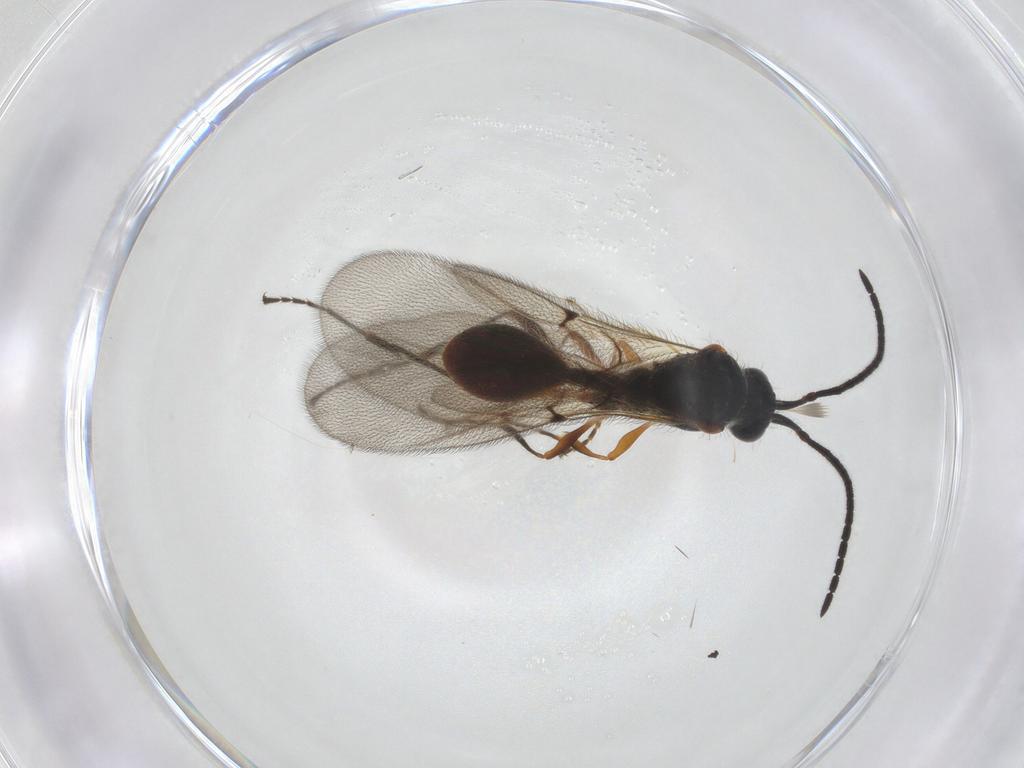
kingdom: Animalia
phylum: Arthropoda
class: Insecta
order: Hymenoptera
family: Diapriidae
